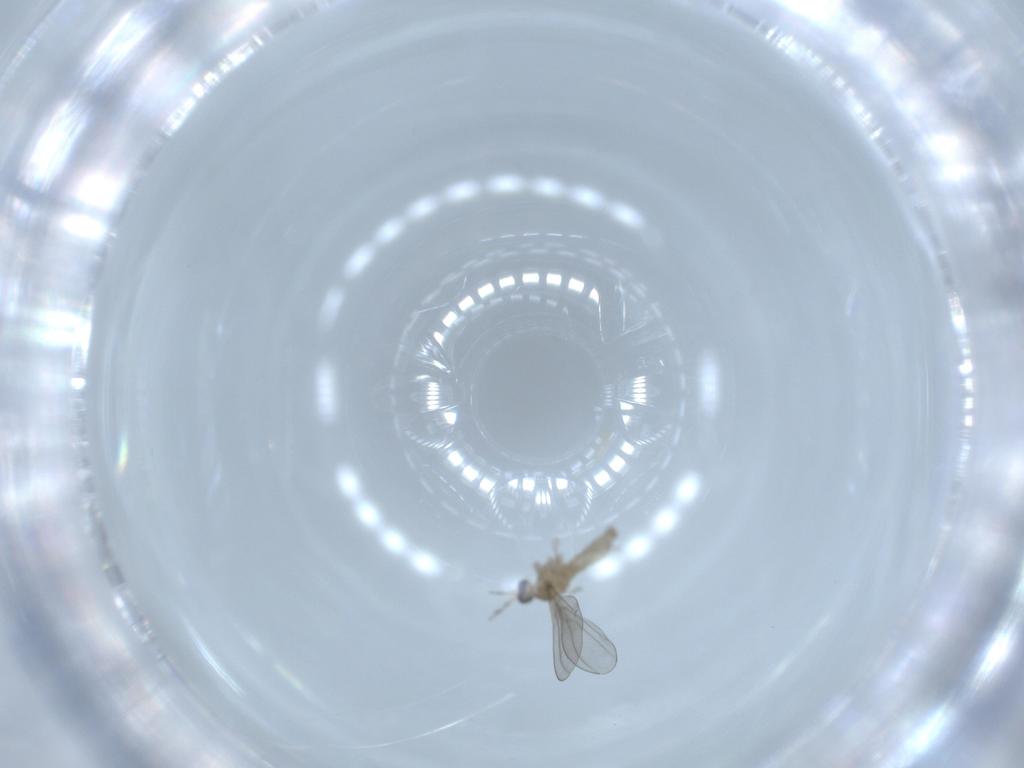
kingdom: Animalia
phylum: Arthropoda
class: Insecta
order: Diptera
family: Cecidomyiidae
